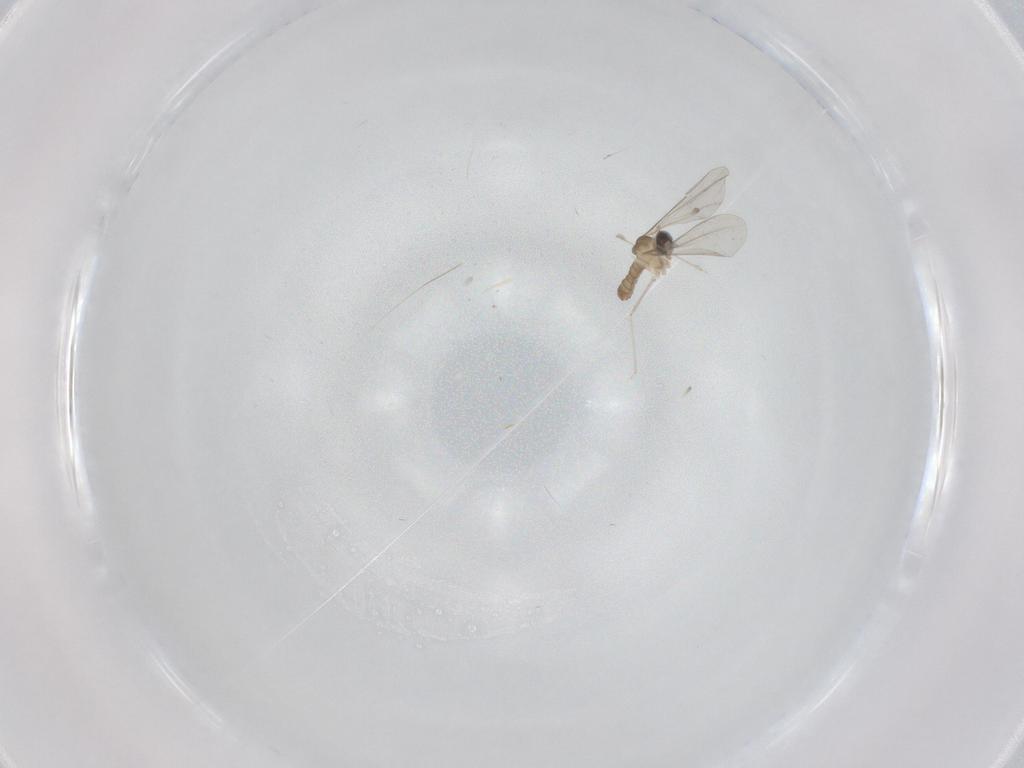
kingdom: Animalia
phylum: Arthropoda
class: Insecta
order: Diptera
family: Cecidomyiidae
